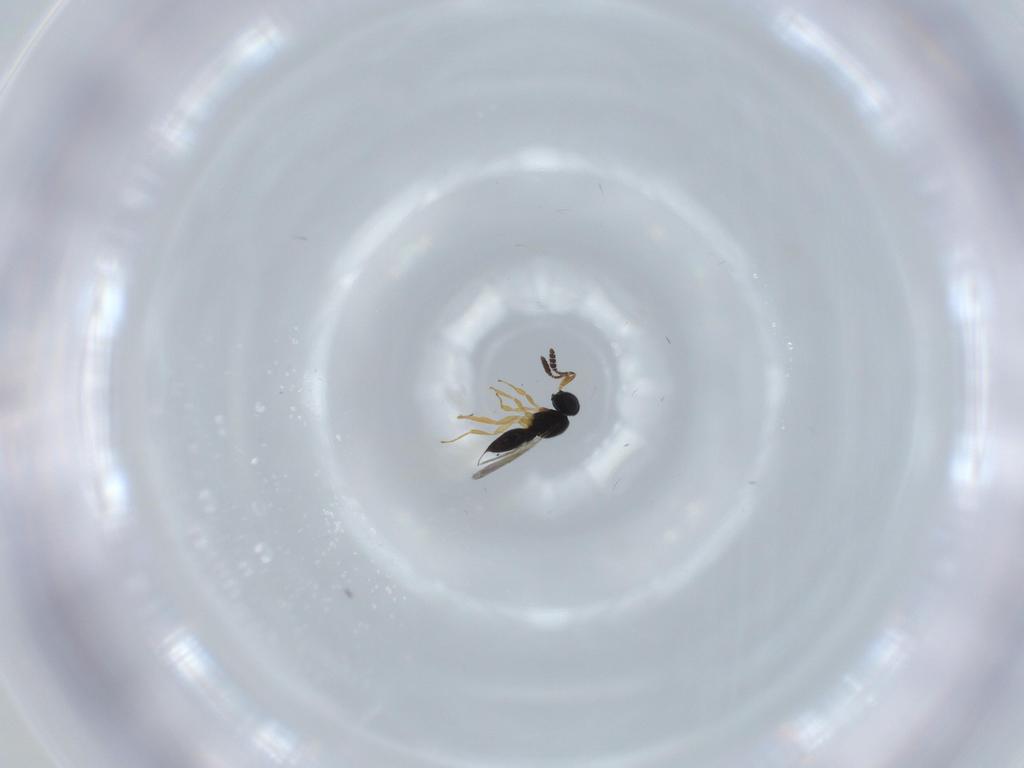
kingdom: Animalia
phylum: Arthropoda
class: Insecta
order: Hymenoptera
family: Scelionidae
